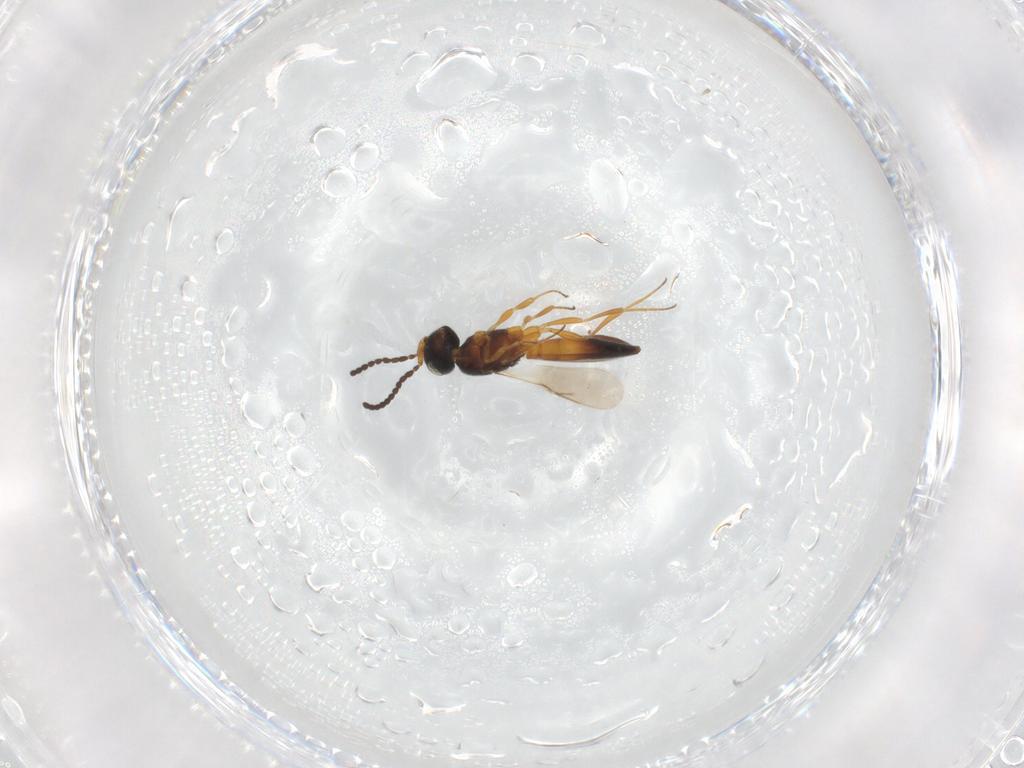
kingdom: Animalia
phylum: Arthropoda
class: Insecta
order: Hymenoptera
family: Scelionidae
